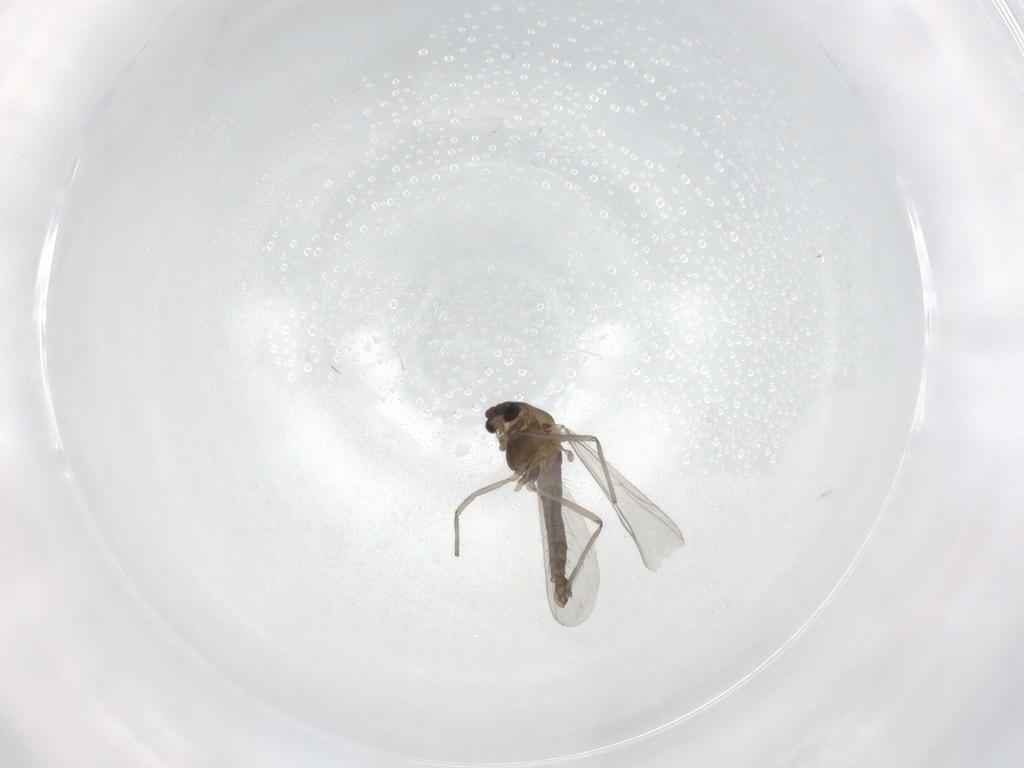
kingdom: Animalia
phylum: Arthropoda
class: Insecta
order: Diptera
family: Chironomidae
